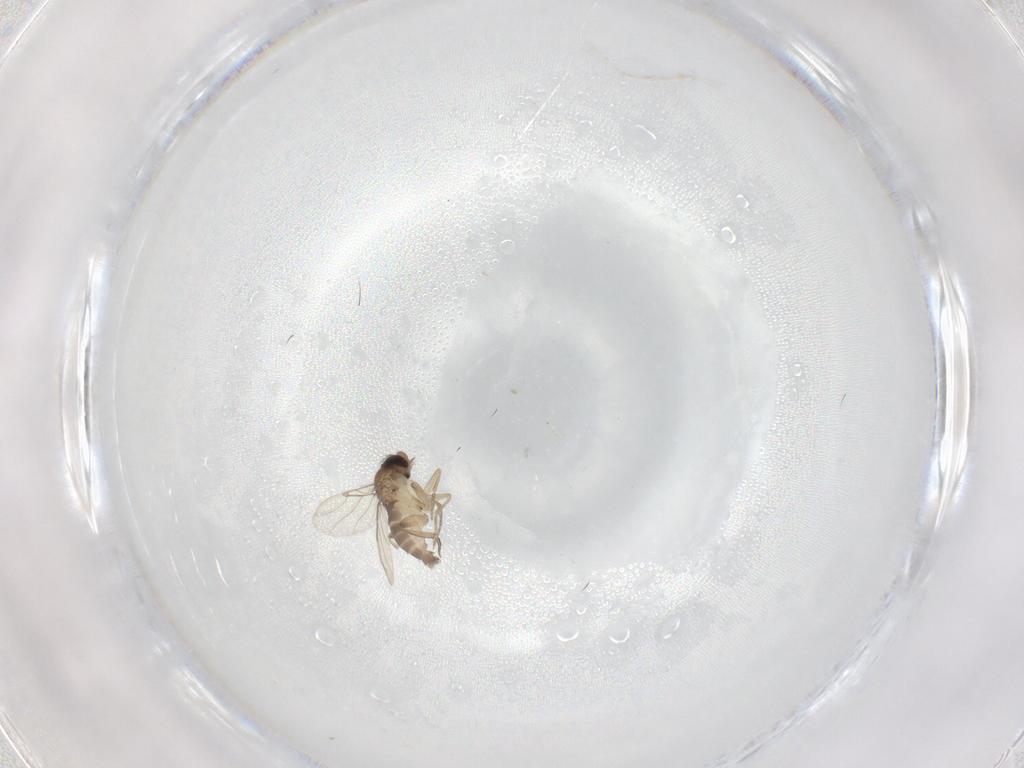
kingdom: Animalia
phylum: Arthropoda
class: Insecta
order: Diptera
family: Phoridae
